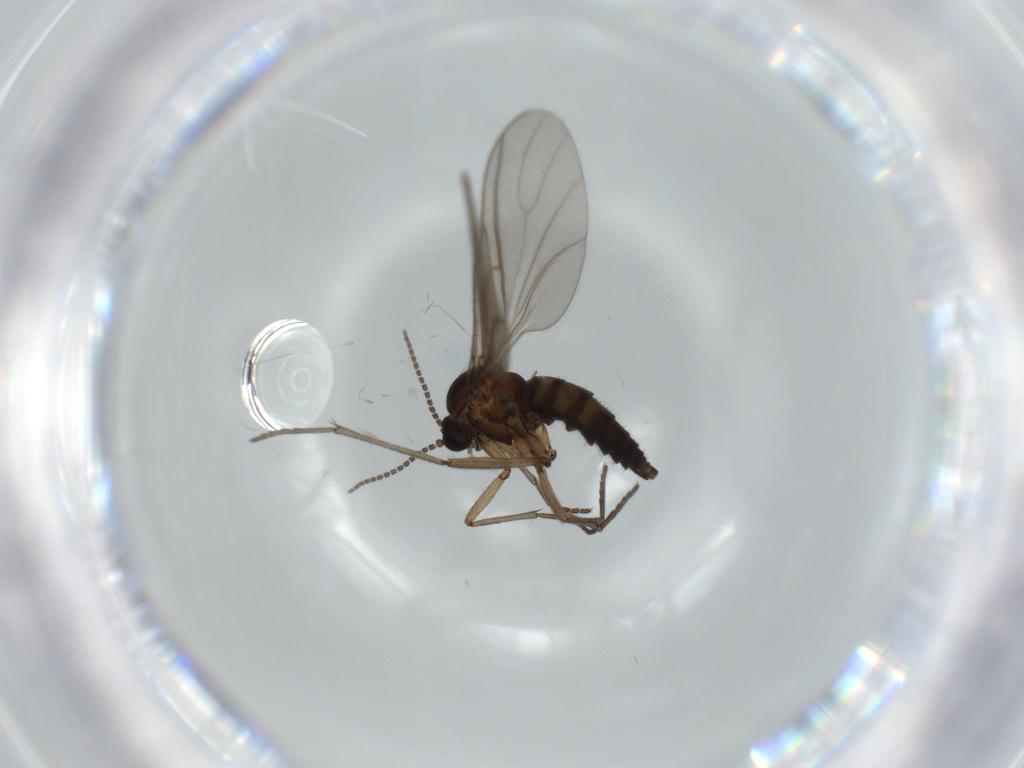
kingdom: Animalia
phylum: Arthropoda
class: Insecta
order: Diptera
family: Sciaridae
